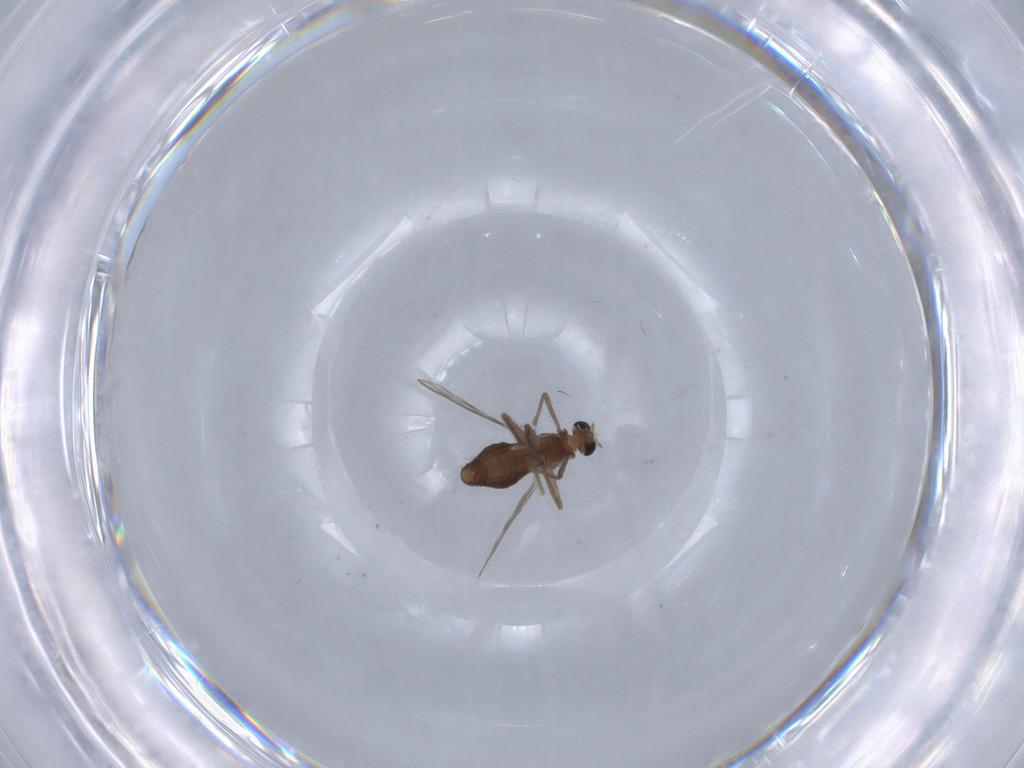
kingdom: Animalia
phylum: Arthropoda
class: Insecta
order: Diptera
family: Chironomidae
